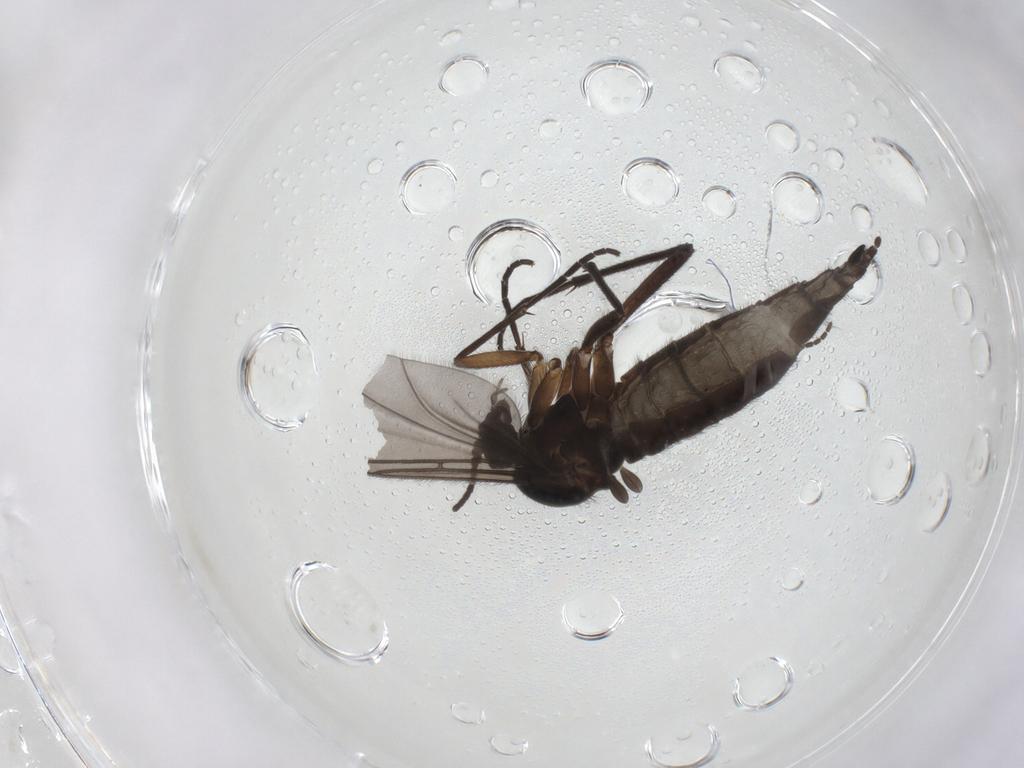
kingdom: Animalia
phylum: Arthropoda
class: Insecta
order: Diptera
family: Sciaridae
